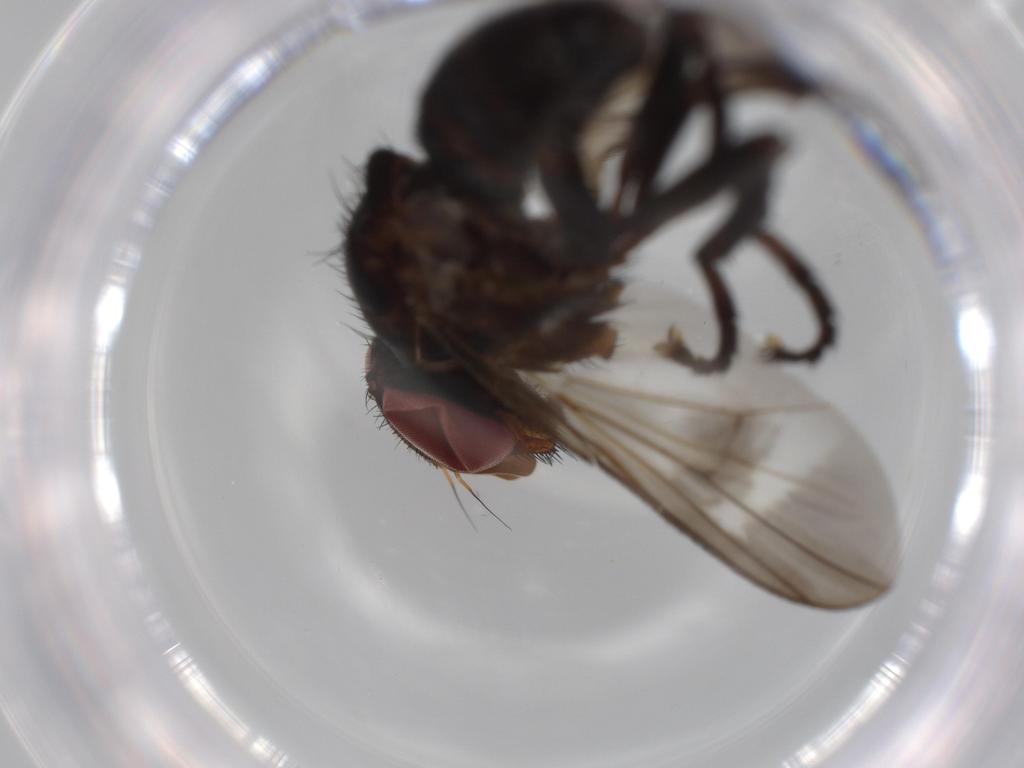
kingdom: Animalia
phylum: Arthropoda
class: Insecta
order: Diptera
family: Calliphoridae
